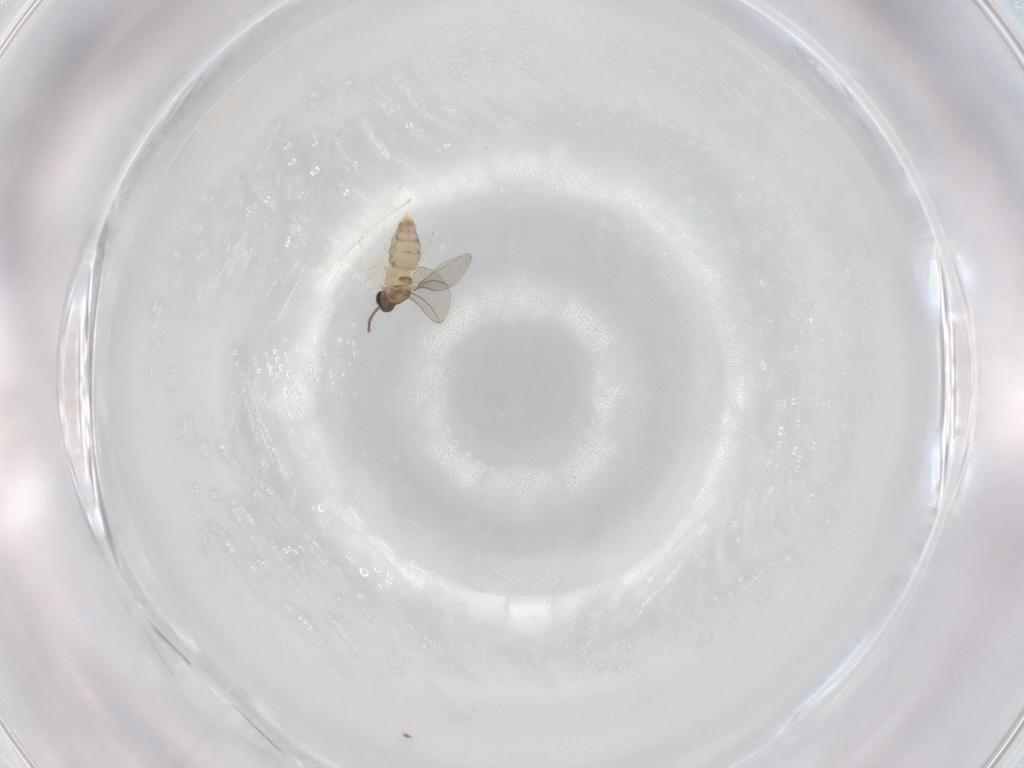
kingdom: Animalia
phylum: Arthropoda
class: Insecta
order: Diptera
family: Cecidomyiidae
